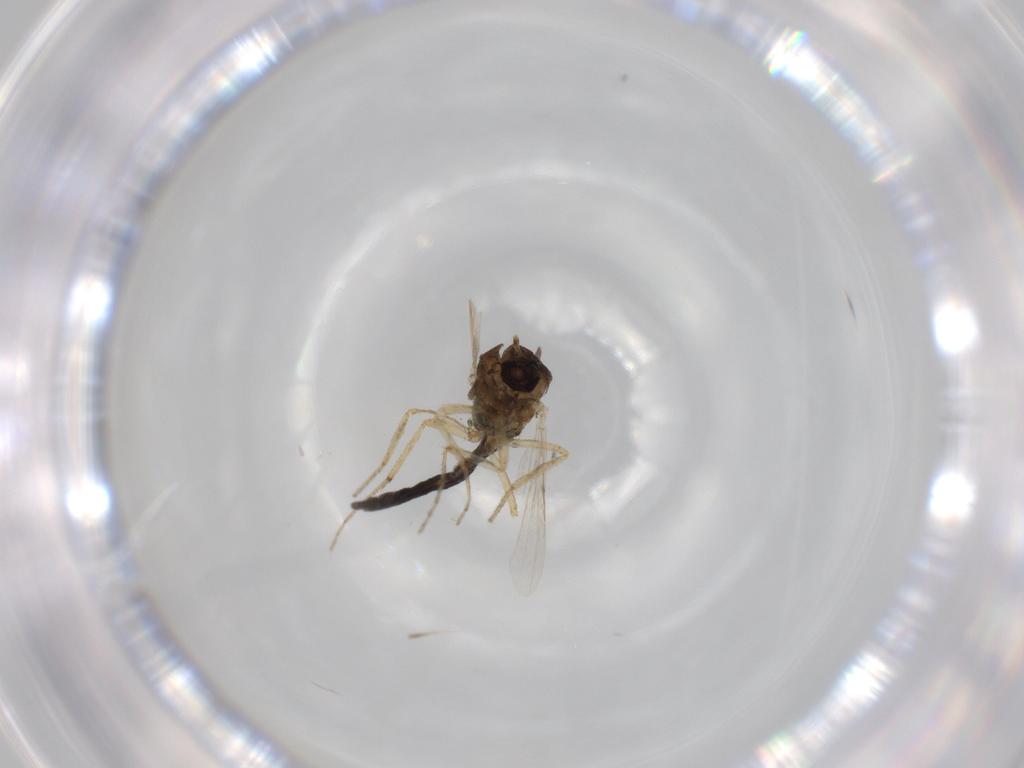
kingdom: Animalia
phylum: Arthropoda
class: Insecta
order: Diptera
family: Ceratopogonidae
